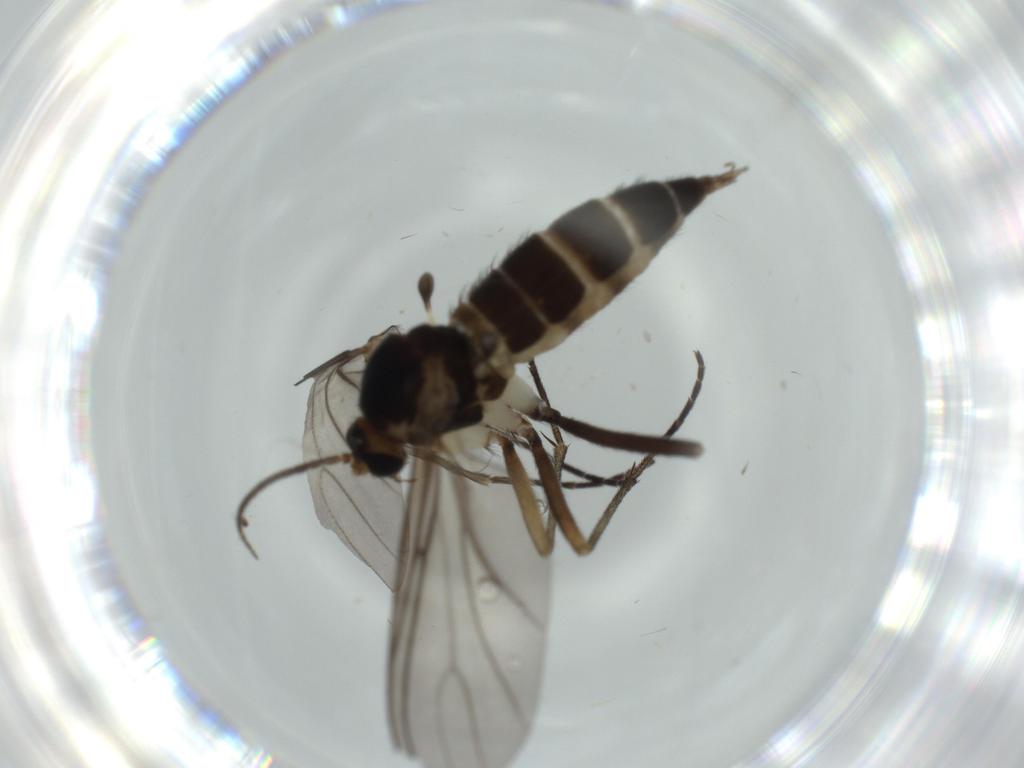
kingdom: Animalia
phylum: Arthropoda
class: Insecta
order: Diptera
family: Sciaridae
